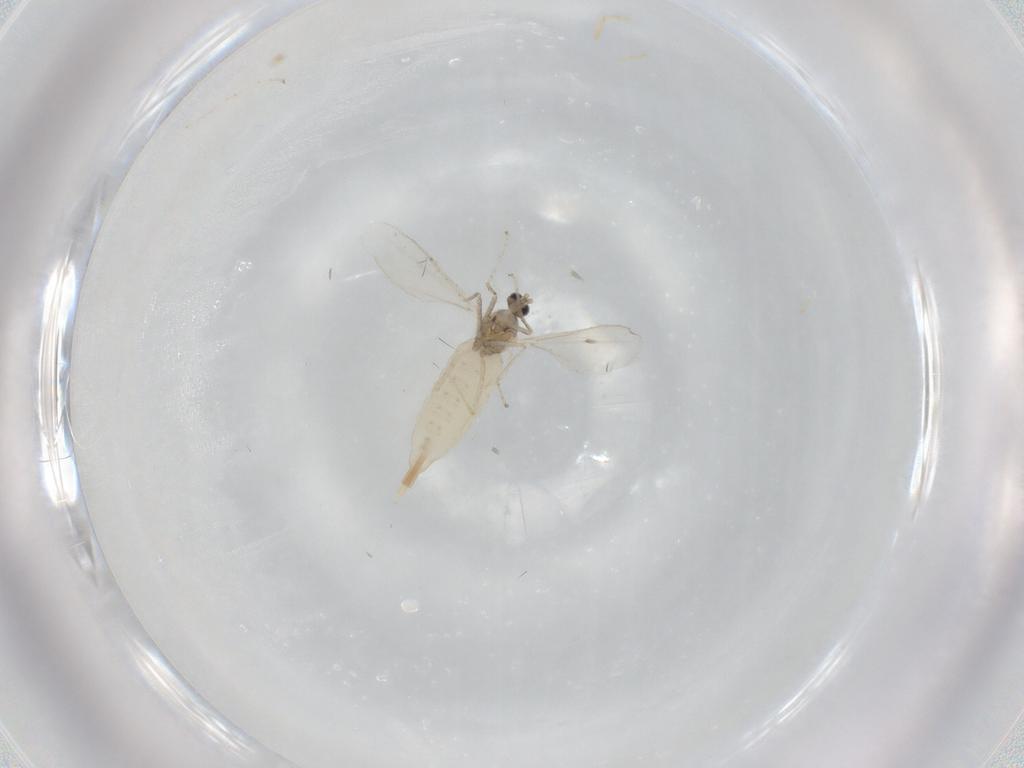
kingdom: Animalia
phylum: Arthropoda
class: Insecta
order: Diptera
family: Cecidomyiidae
